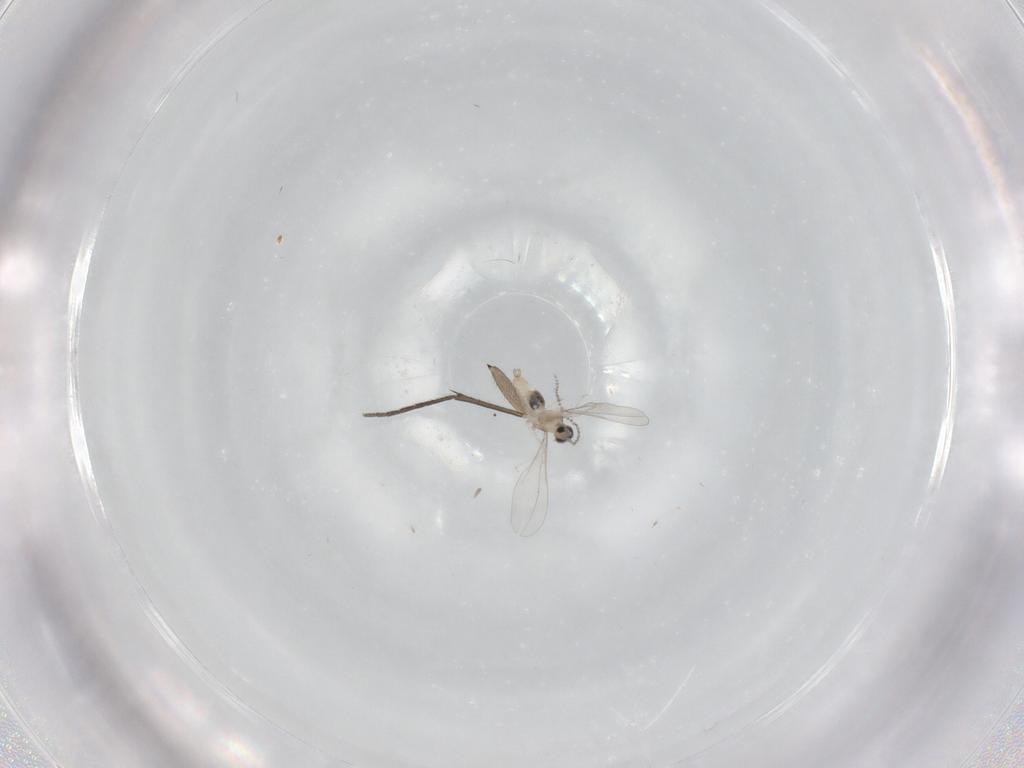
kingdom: Animalia
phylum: Arthropoda
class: Insecta
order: Diptera
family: Cecidomyiidae
